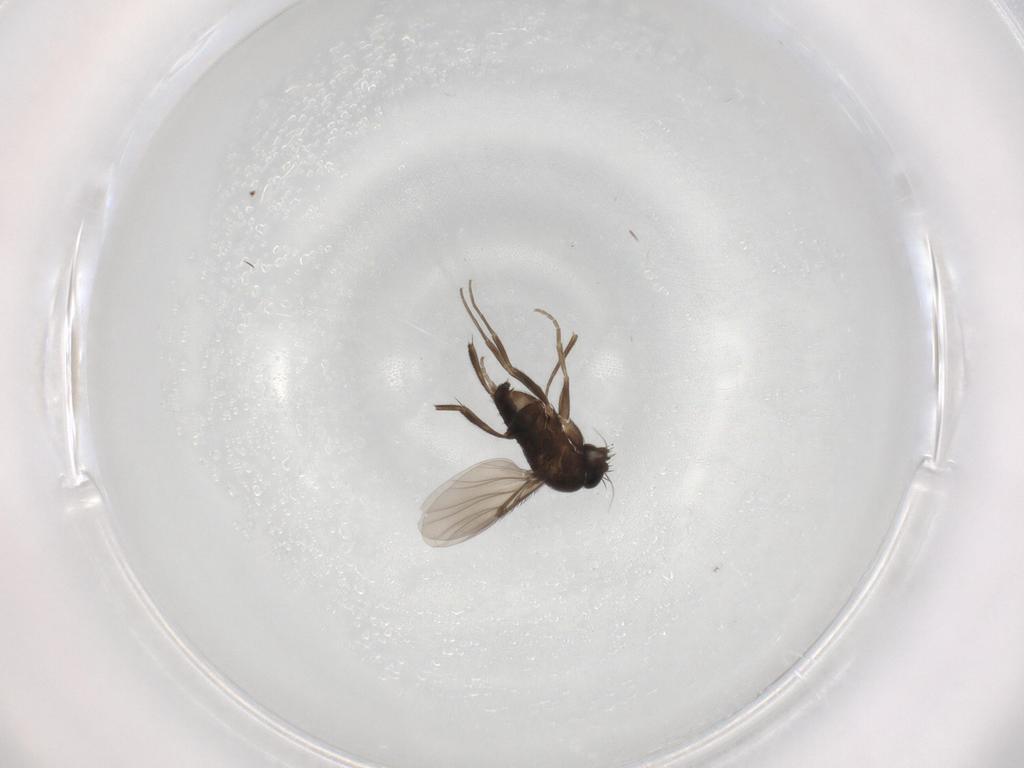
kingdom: Animalia
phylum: Arthropoda
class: Insecta
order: Diptera
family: Phoridae
